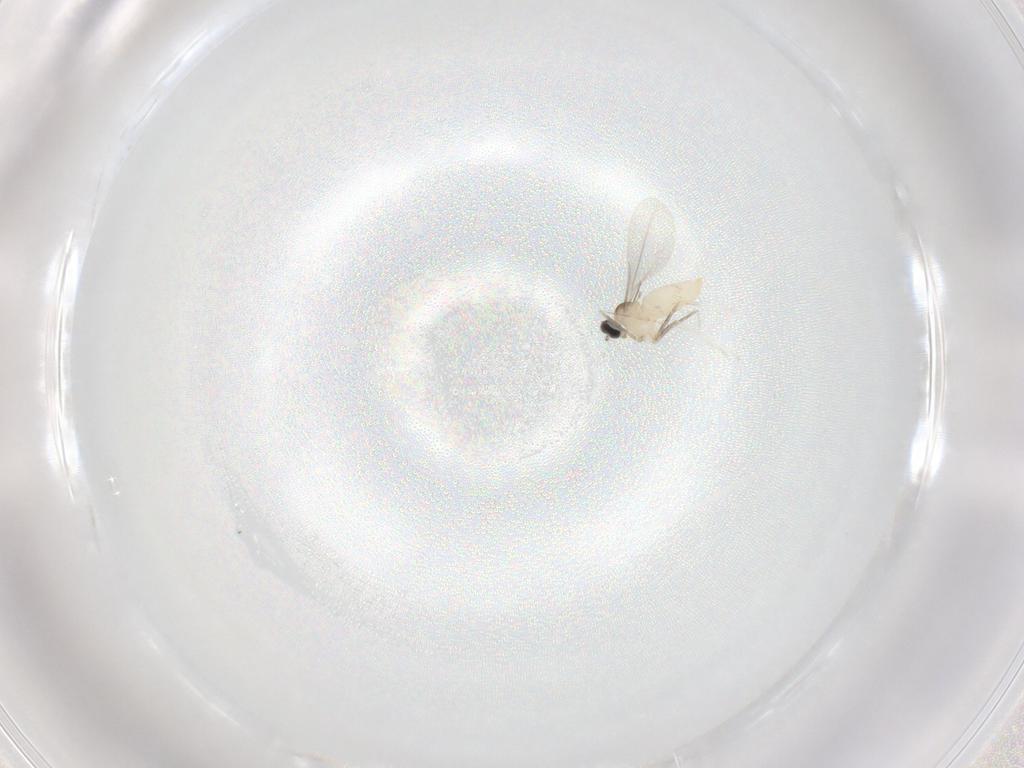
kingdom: Animalia
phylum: Arthropoda
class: Insecta
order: Diptera
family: Cecidomyiidae
